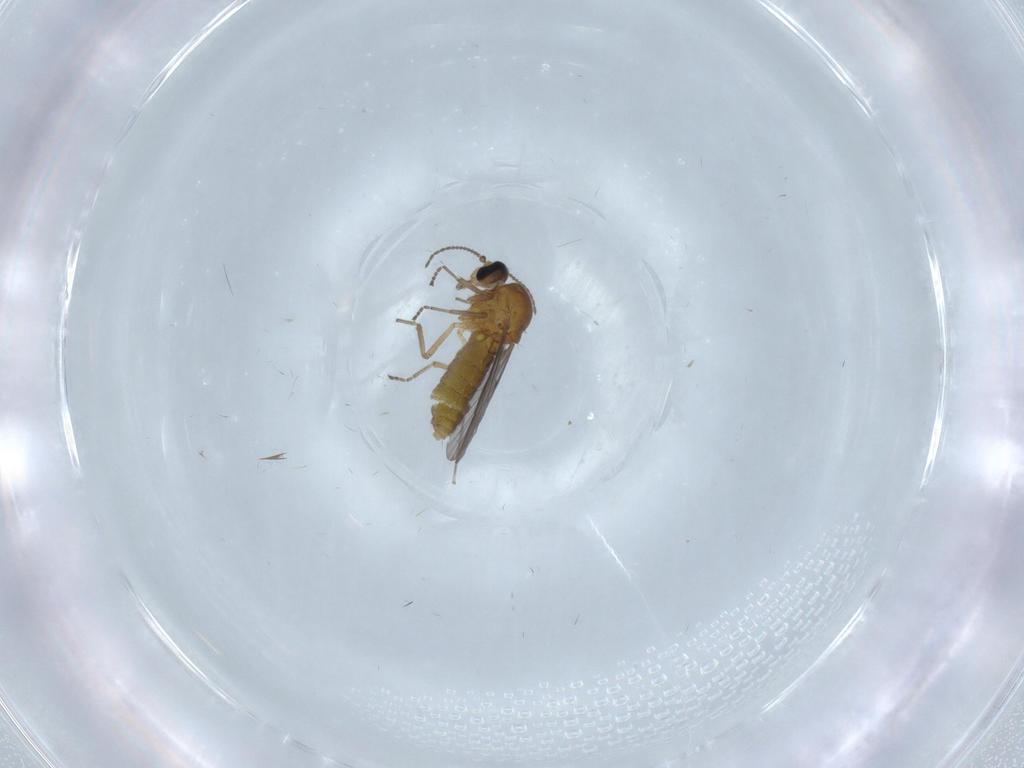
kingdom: Animalia
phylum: Arthropoda
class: Insecta
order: Diptera
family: Ceratopogonidae
